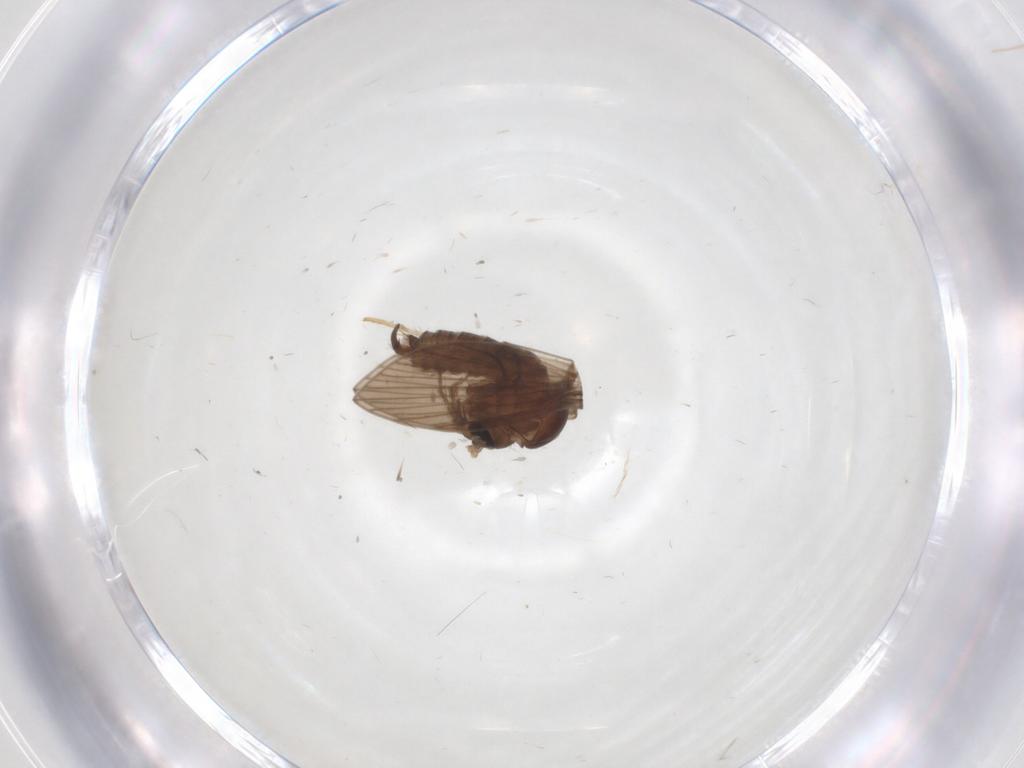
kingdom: Animalia
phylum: Arthropoda
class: Insecta
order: Diptera
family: Psychodidae
